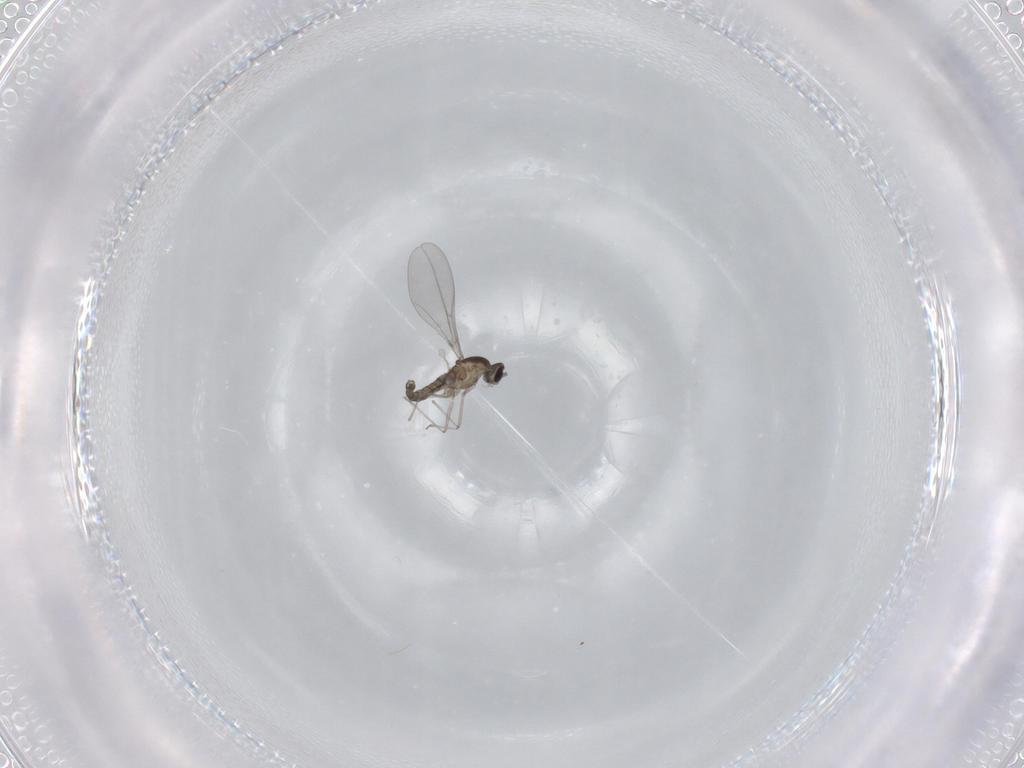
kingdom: Animalia
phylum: Arthropoda
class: Insecta
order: Diptera
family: Cecidomyiidae
